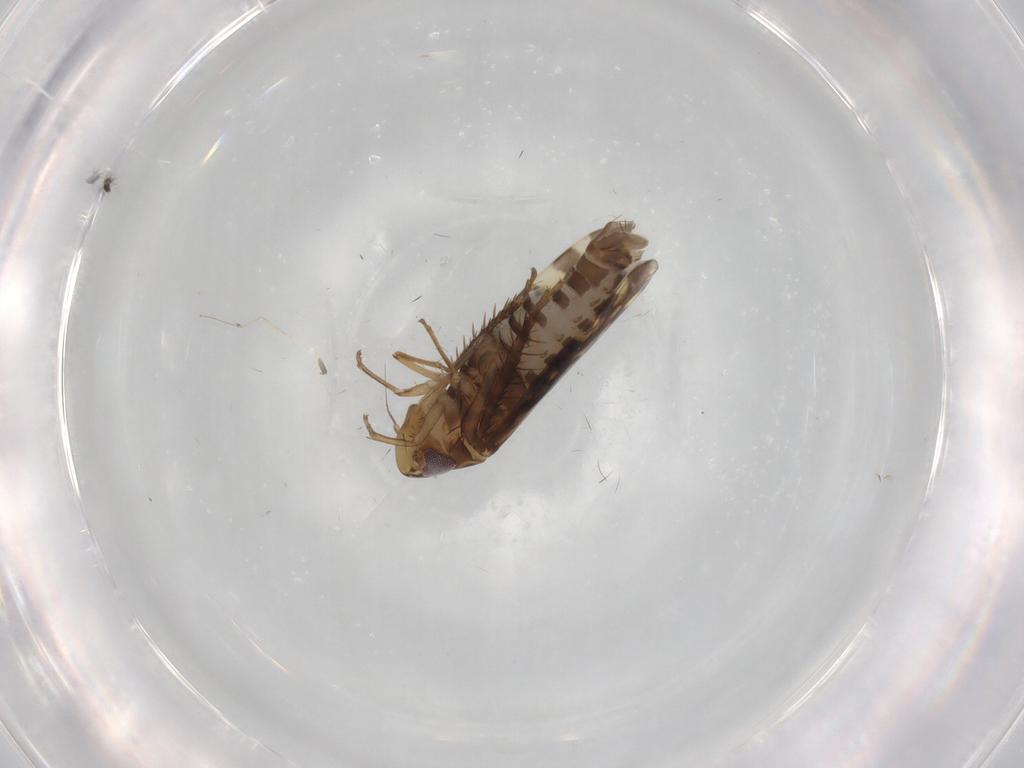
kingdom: Animalia
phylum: Arthropoda
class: Insecta
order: Hemiptera
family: Cicadellidae
